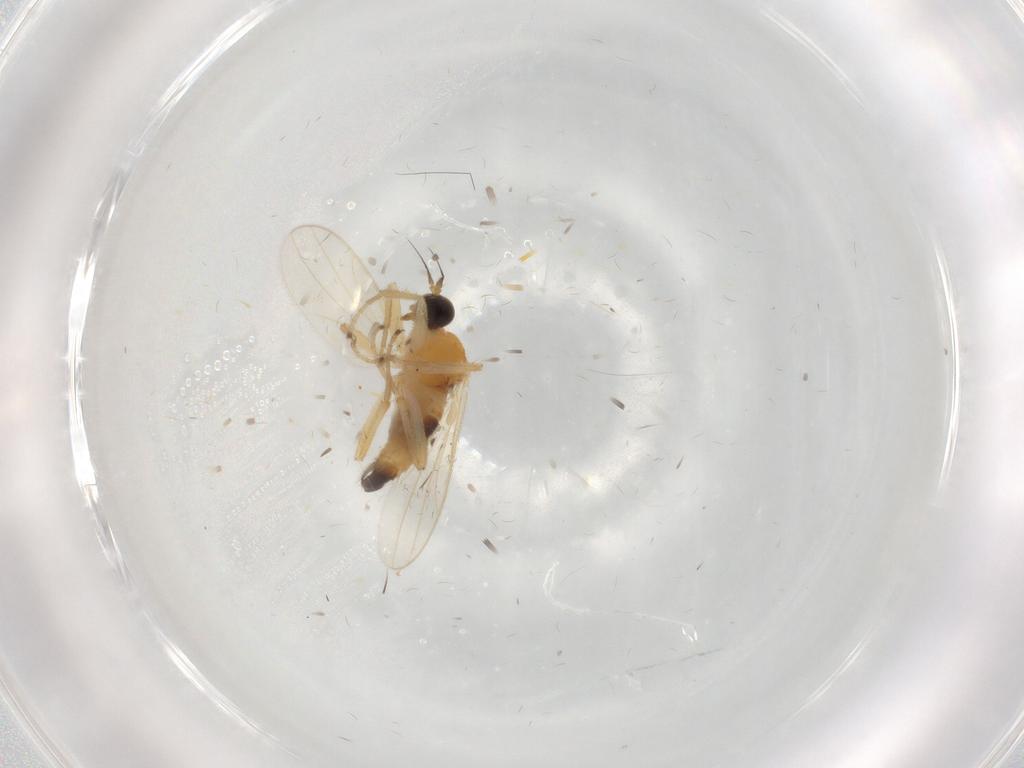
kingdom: Animalia
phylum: Arthropoda
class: Insecta
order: Diptera
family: Hybotidae
